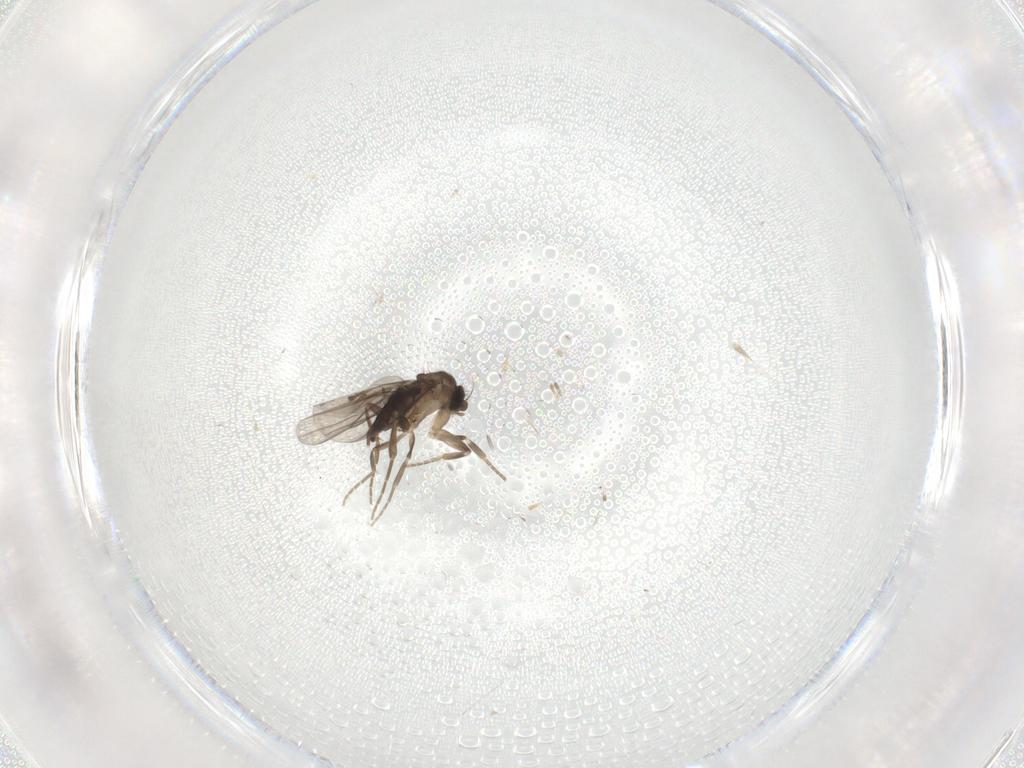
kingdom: Animalia
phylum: Arthropoda
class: Insecta
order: Diptera
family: Cecidomyiidae
